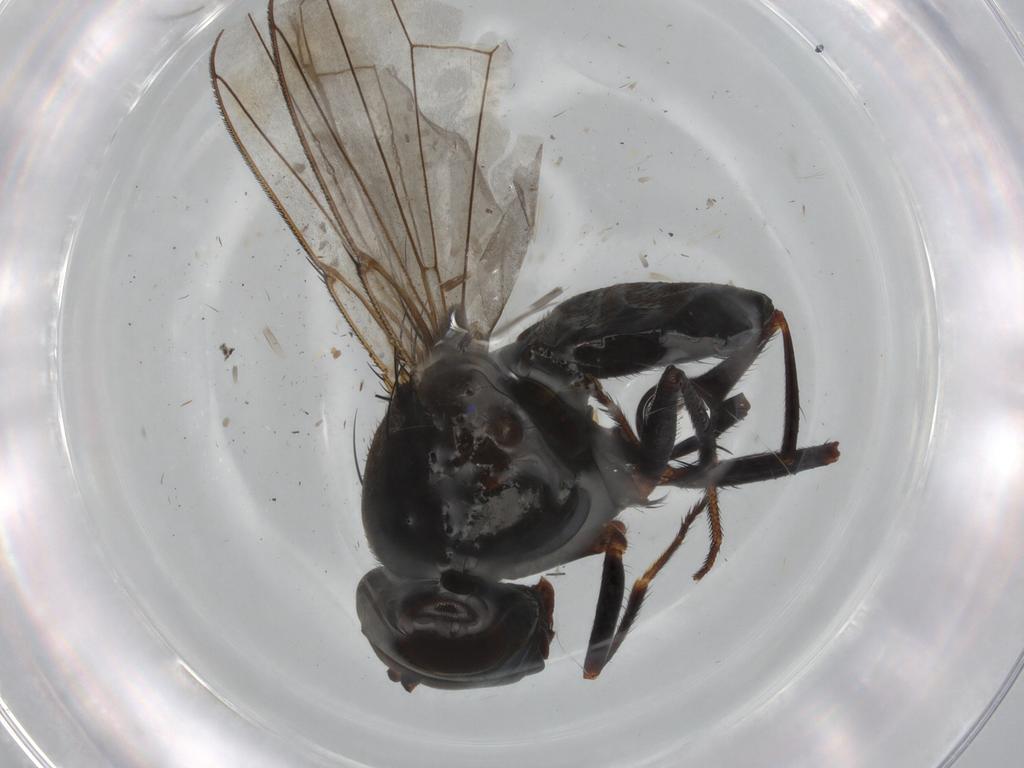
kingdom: Animalia
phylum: Arthropoda
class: Insecta
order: Diptera
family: Ephydridae
